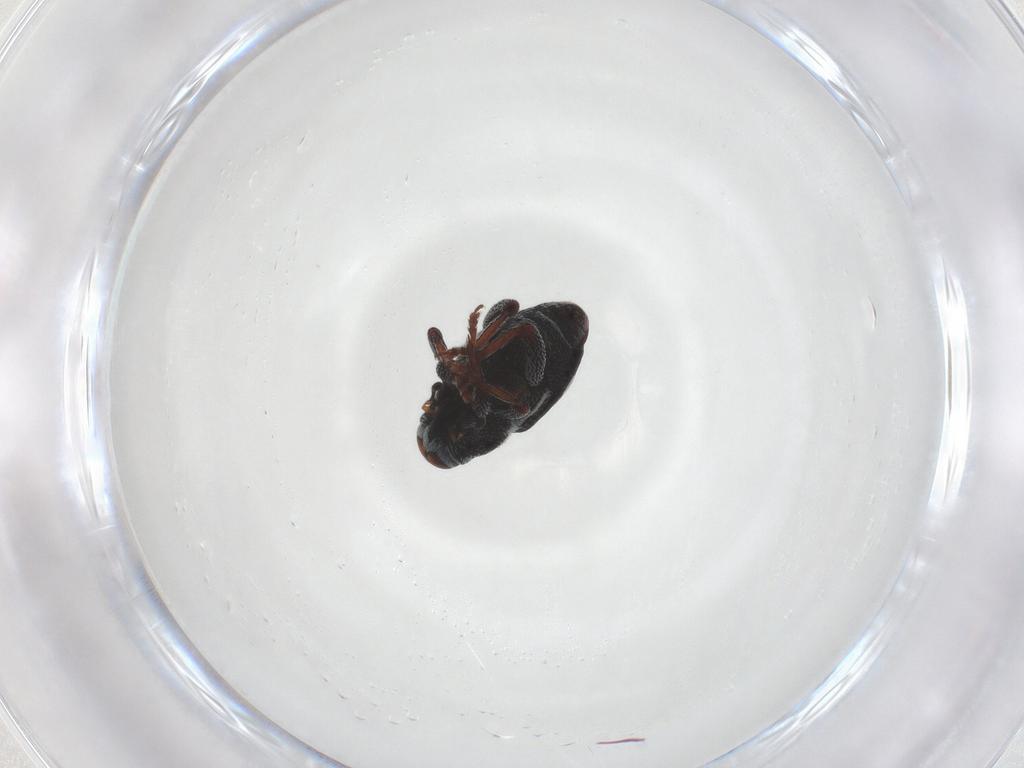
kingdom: Animalia
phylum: Arthropoda
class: Insecta
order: Coleoptera
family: Curculionidae
